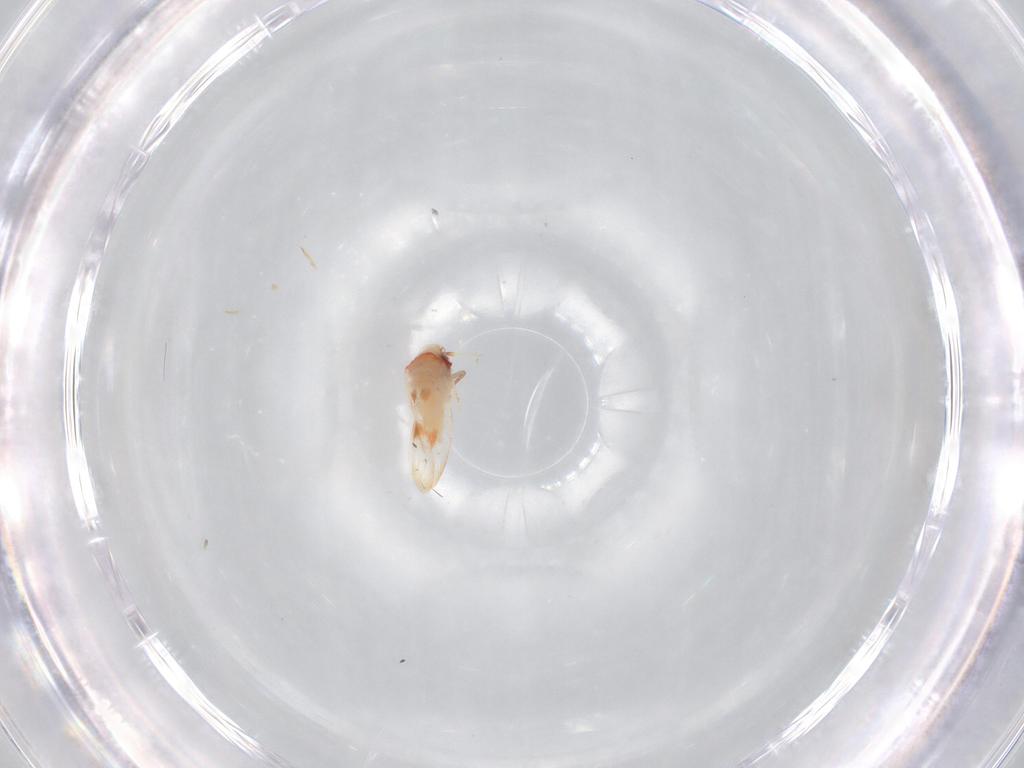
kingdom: Animalia
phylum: Arthropoda
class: Insecta
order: Hemiptera
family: Aleyrodidae
